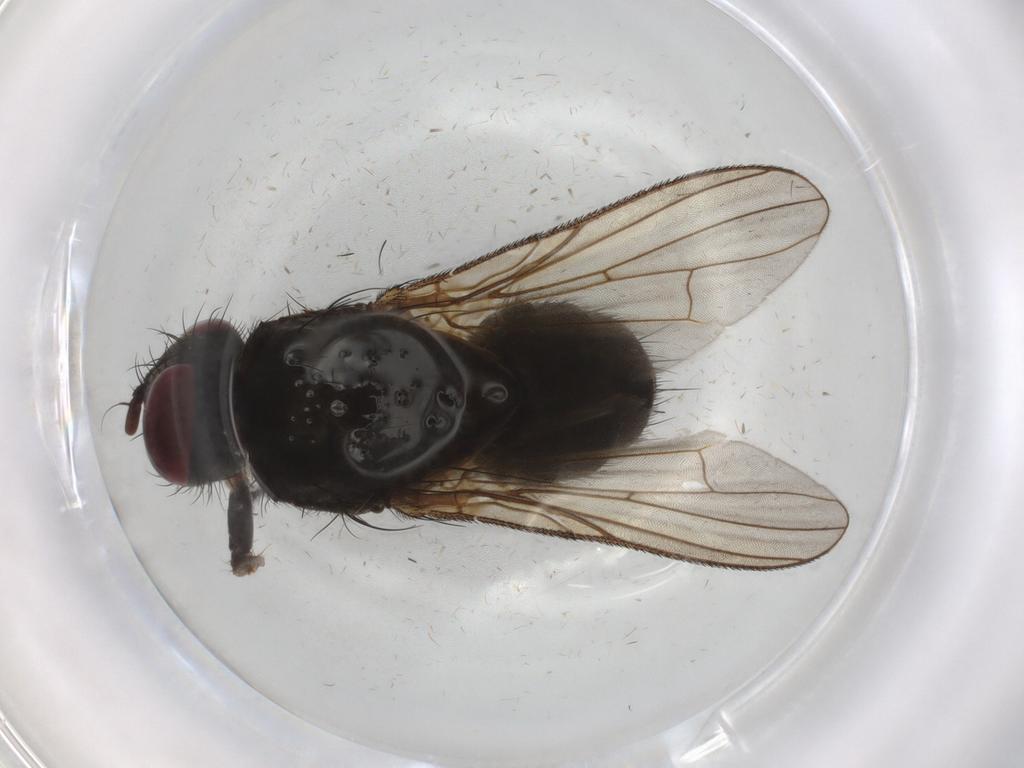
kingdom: Animalia
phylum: Arthropoda
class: Insecta
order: Diptera
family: Muscidae
